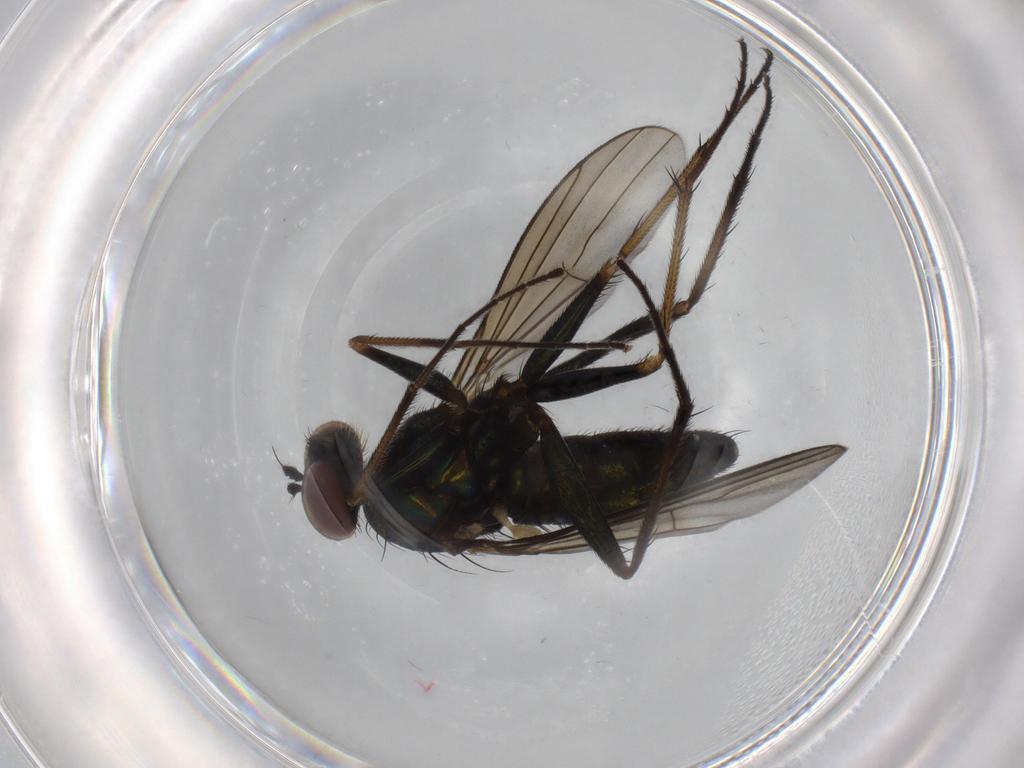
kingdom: Animalia
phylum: Arthropoda
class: Insecta
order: Diptera
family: Dolichopodidae
